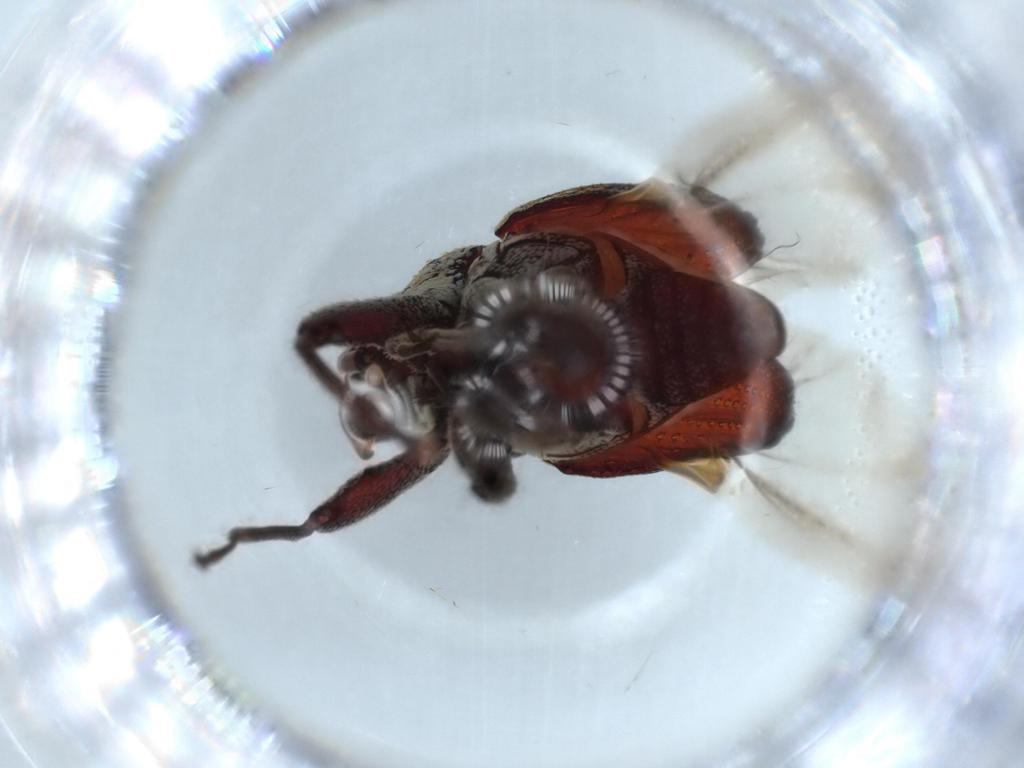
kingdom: Animalia
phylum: Arthropoda
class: Insecta
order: Coleoptera
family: Curculionidae
